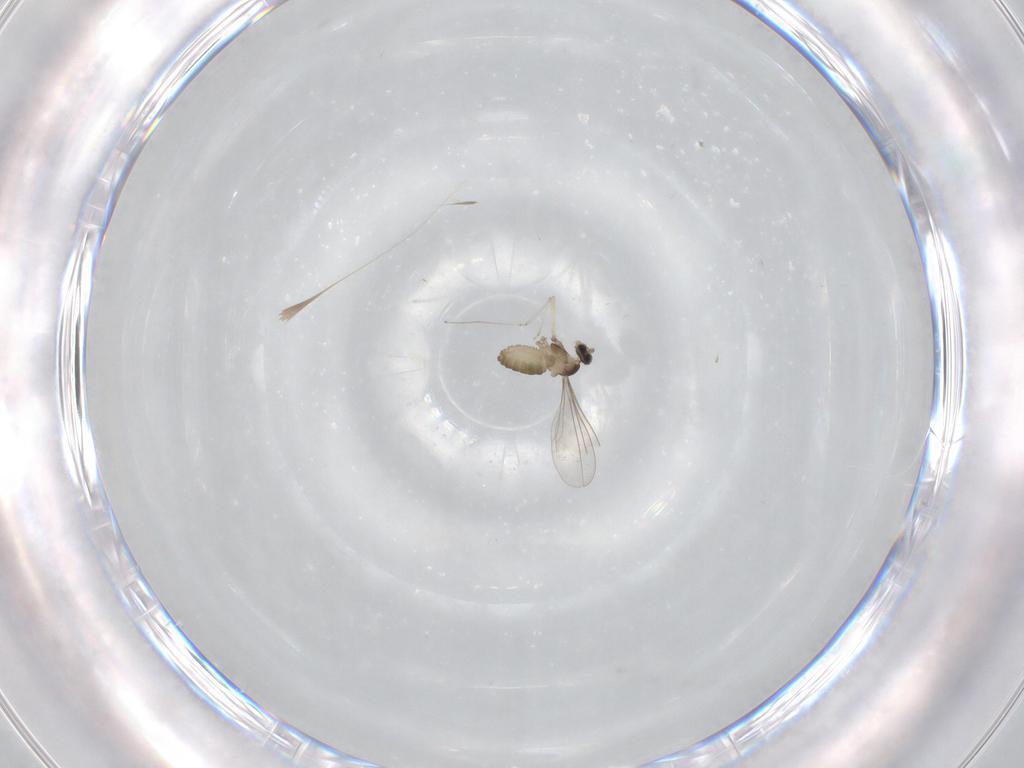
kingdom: Animalia
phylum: Arthropoda
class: Insecta
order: Diptera
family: Cecidomyiidae
